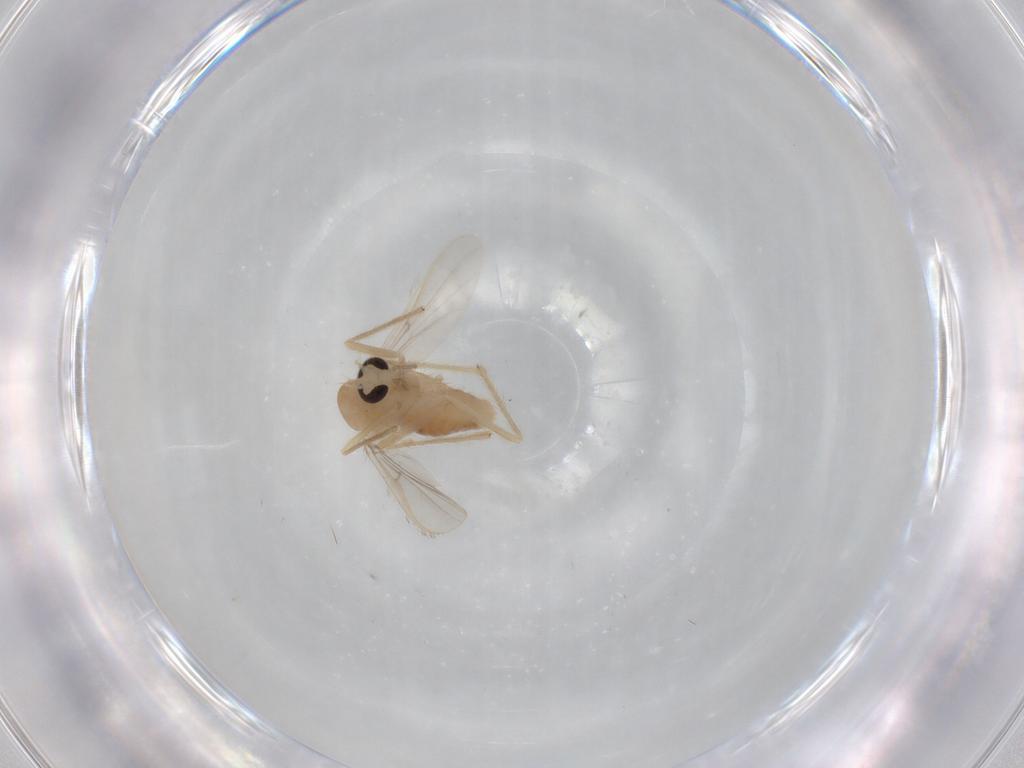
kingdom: Animalia
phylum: Arthropoda
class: Insecta
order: Diptera
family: Chironomidae
